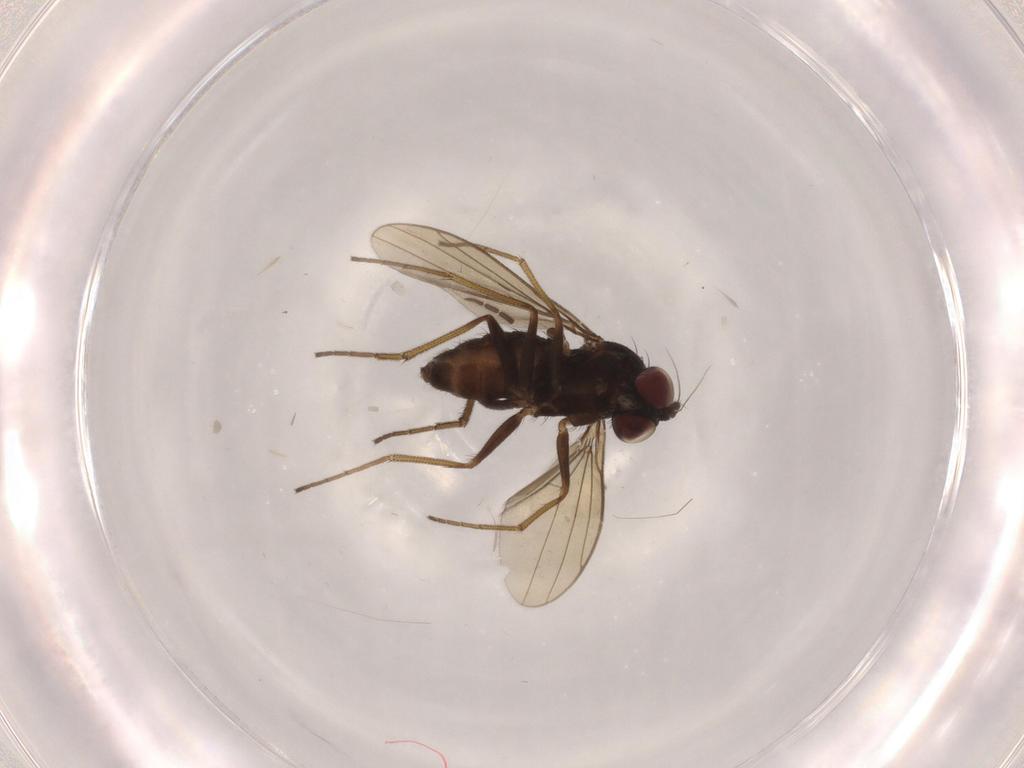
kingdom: Animalia
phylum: Arthropoda
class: Insecta
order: Diptera
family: Dolichopodidae
